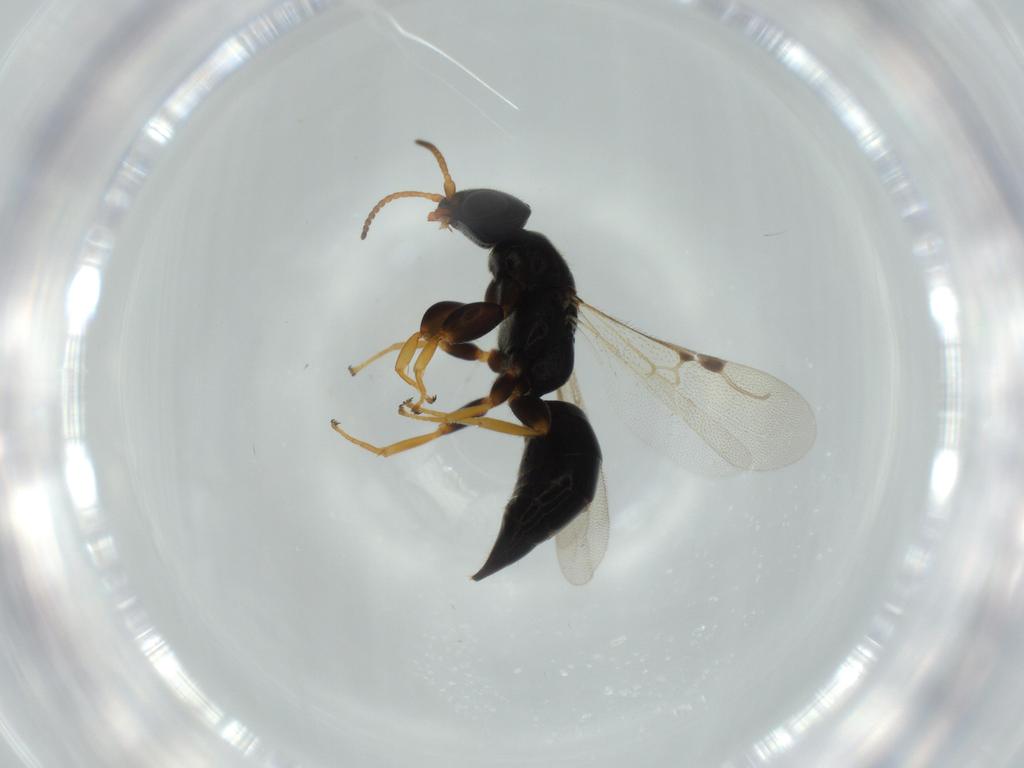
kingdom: Animalia
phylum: Arthropoda
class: Insecta
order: Hymenoptera
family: Bethylidae
